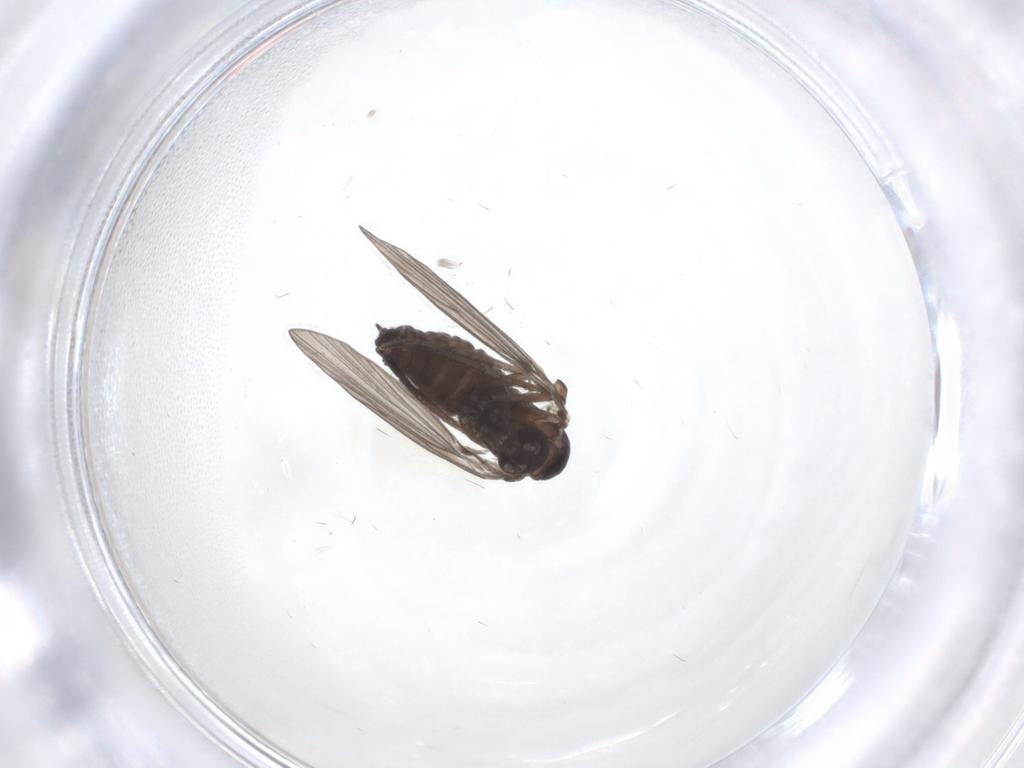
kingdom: Animalia
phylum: Arthropoda
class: Insecta
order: Diptera
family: Psychodidae
